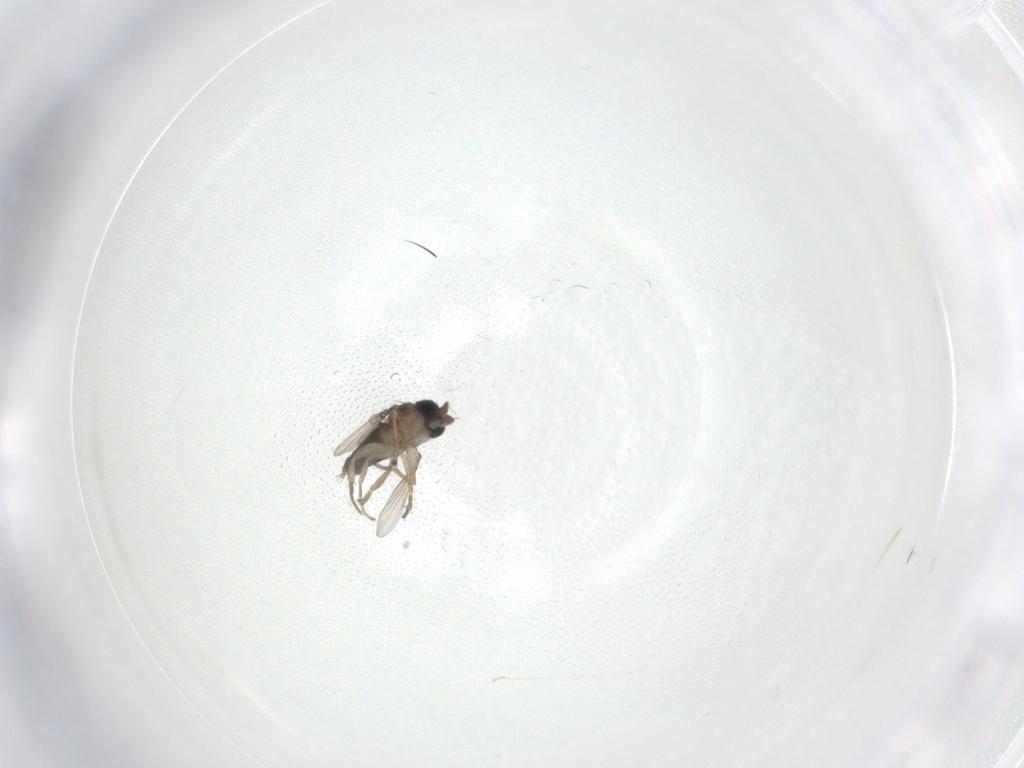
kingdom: Animalia
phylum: Arthropoda
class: Insecta
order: Diptera
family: Phoridae
